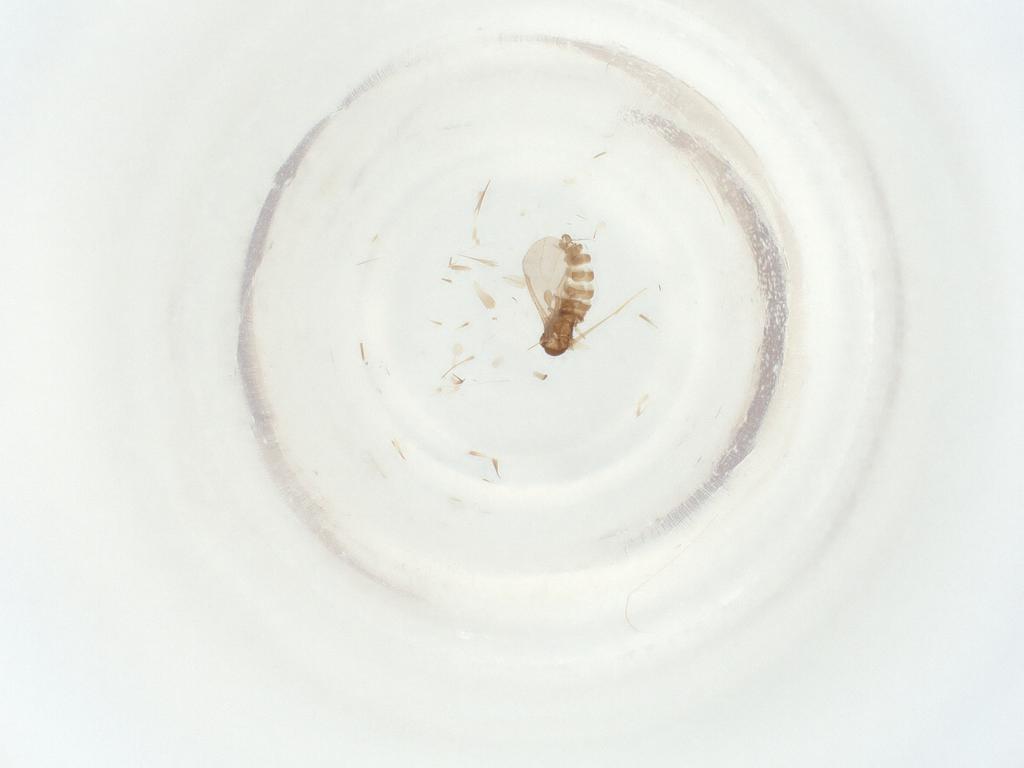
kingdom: Animalia
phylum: Arthropoda
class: Insecta
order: Diptera
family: Sciaridae
